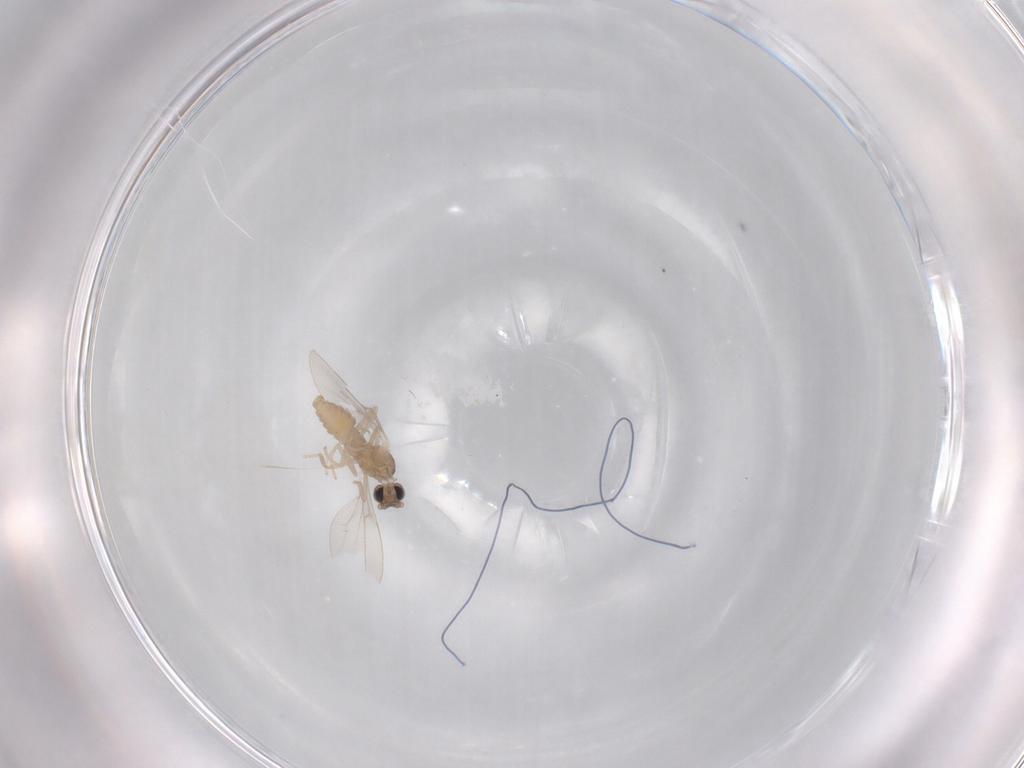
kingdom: Animalia
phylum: Arthropoda
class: Insecta
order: Diptera
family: Cecidomyiidae
